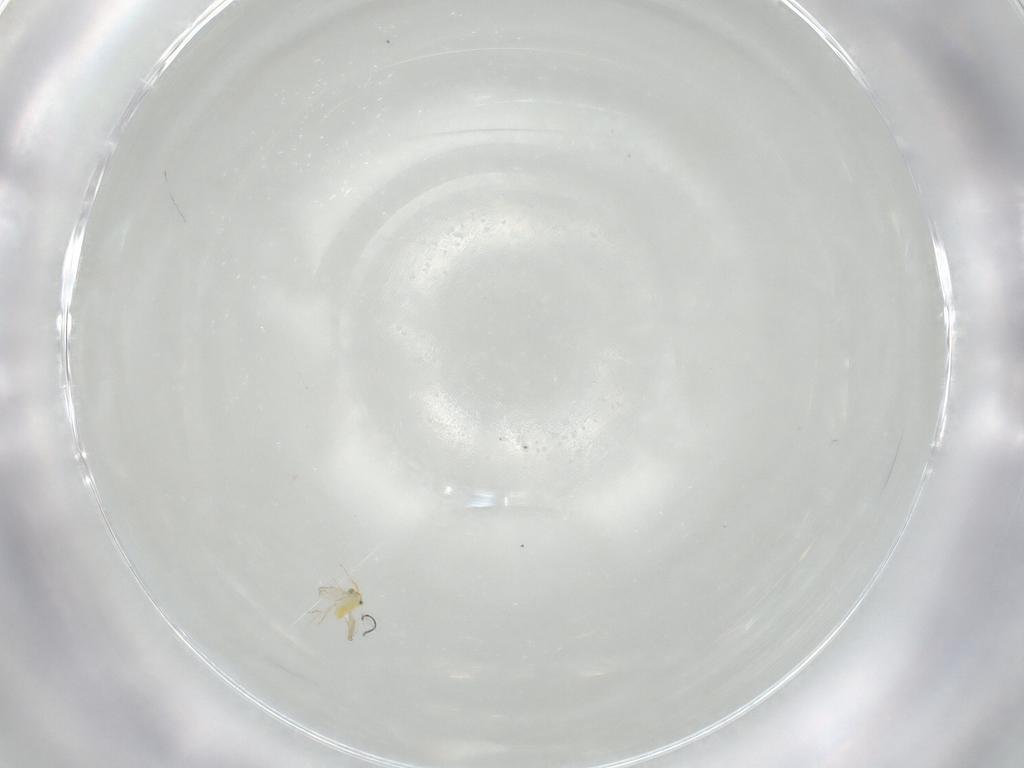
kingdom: Animalia
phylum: Arthropoda
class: Insecta
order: Hymenoptera
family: Aphelinidae
